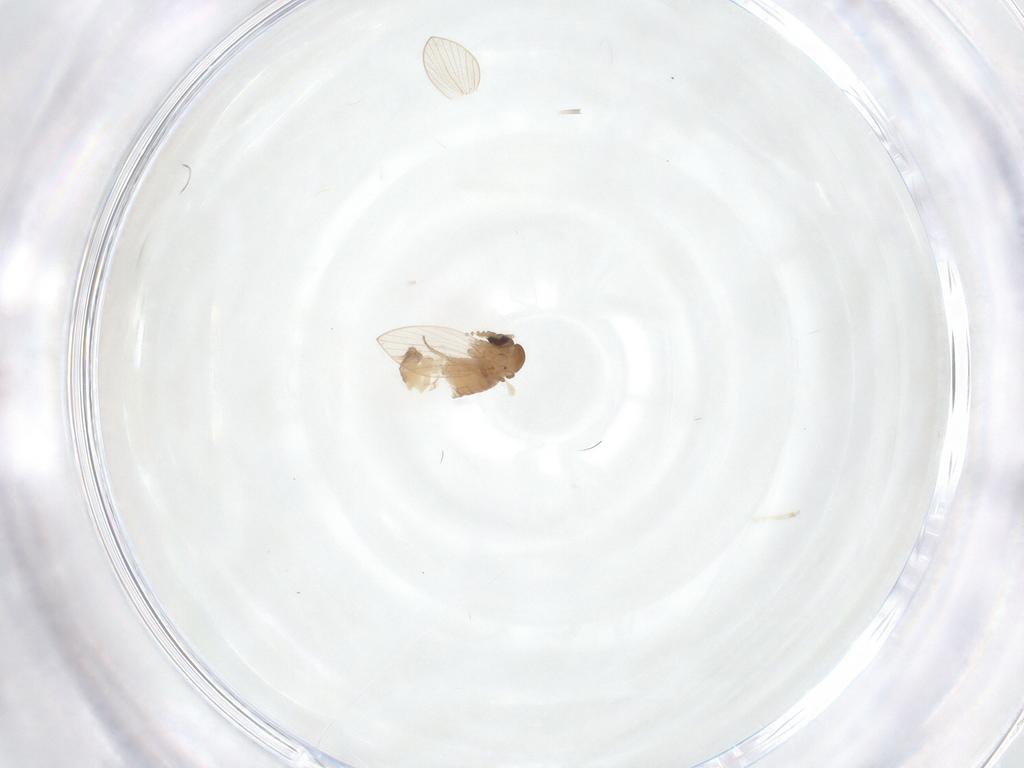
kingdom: Animalia
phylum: Arthropoda
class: Insecta
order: Diptera
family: Psychodidae
